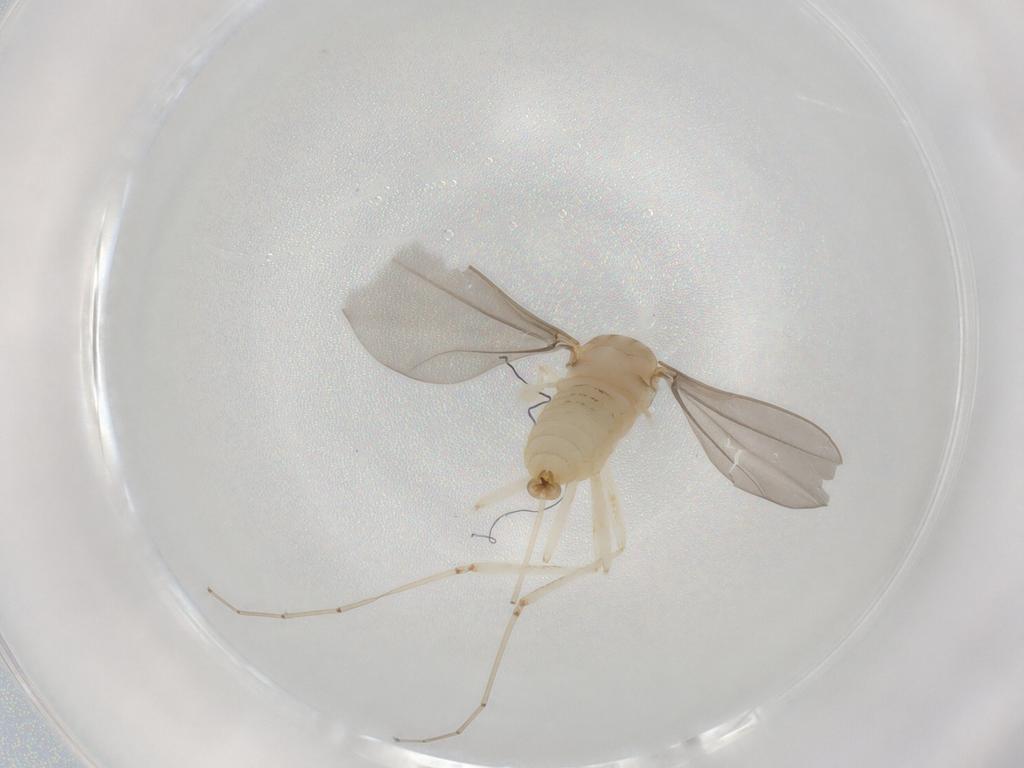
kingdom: Animalia
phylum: Arthropoda
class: Insecta
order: Diptera
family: Cecidomyiidae
